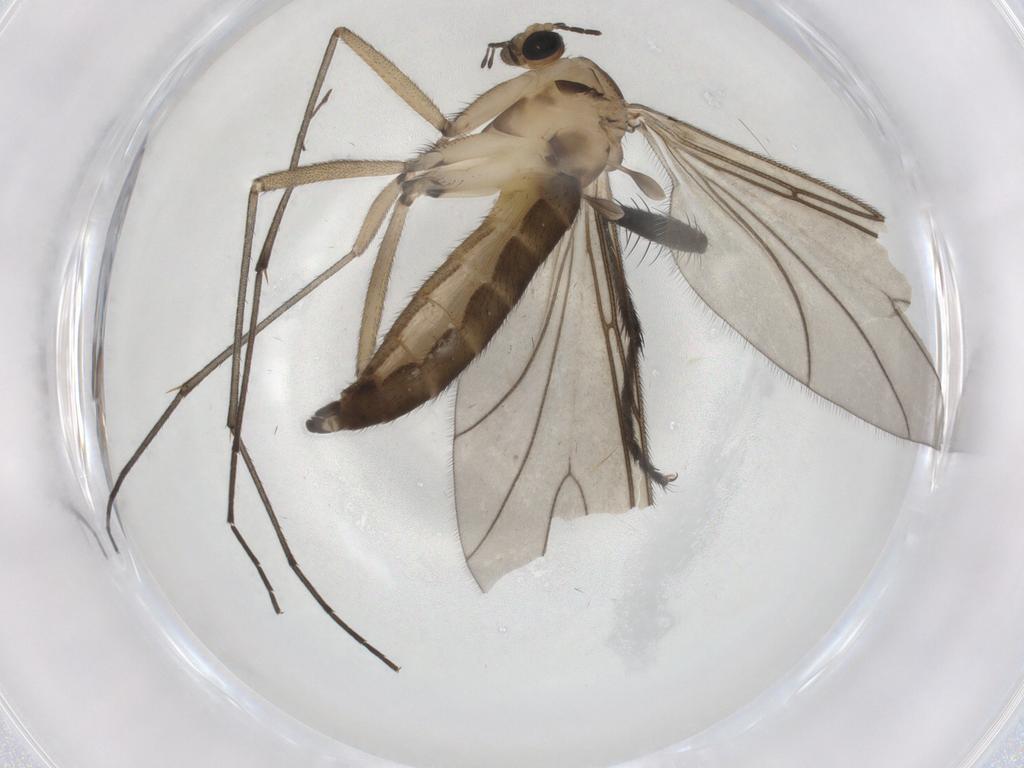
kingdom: Animalia
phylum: Arthropoda
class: Insecta
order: Diptera
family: Sciaridae
